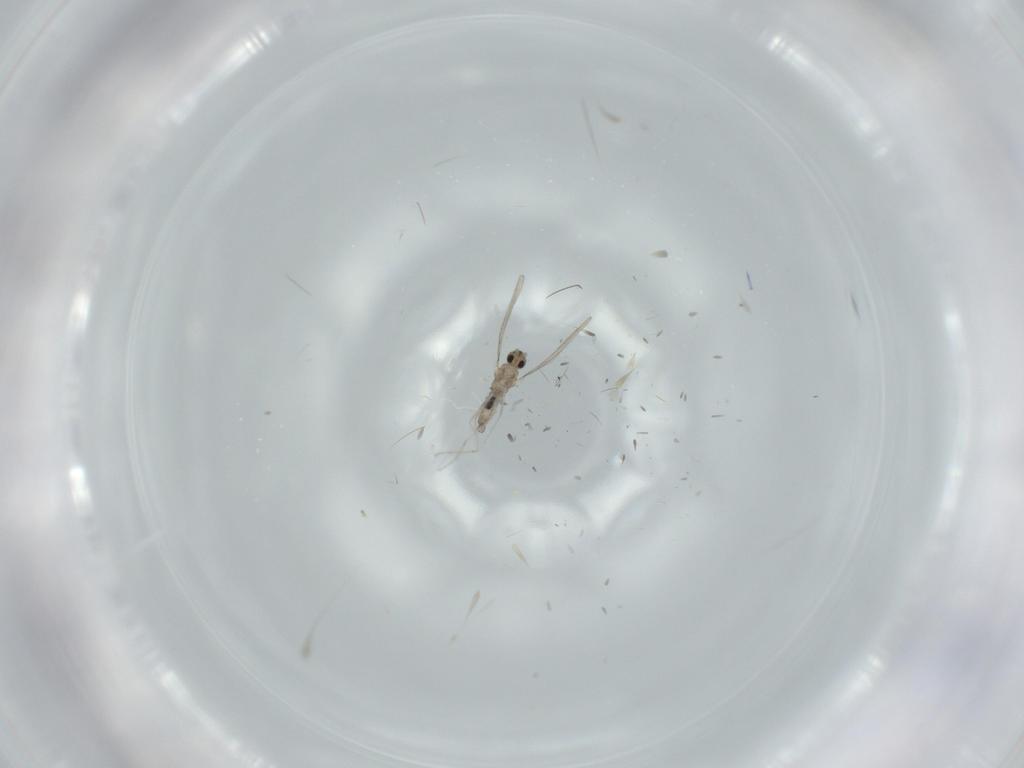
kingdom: Animalia
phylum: Arthropoda
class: Insecta
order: Diptera
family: Cecidomyiidae
